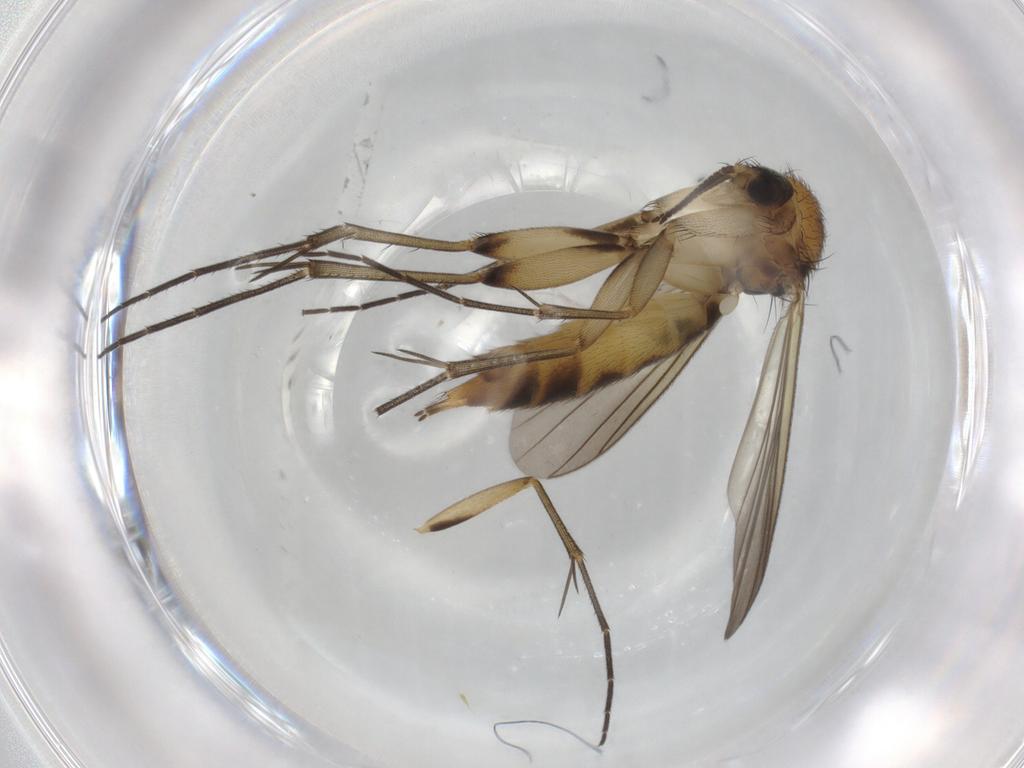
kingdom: Animalia
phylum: Arthropoda
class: Insecta
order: Diptera
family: Mycetophilidae
